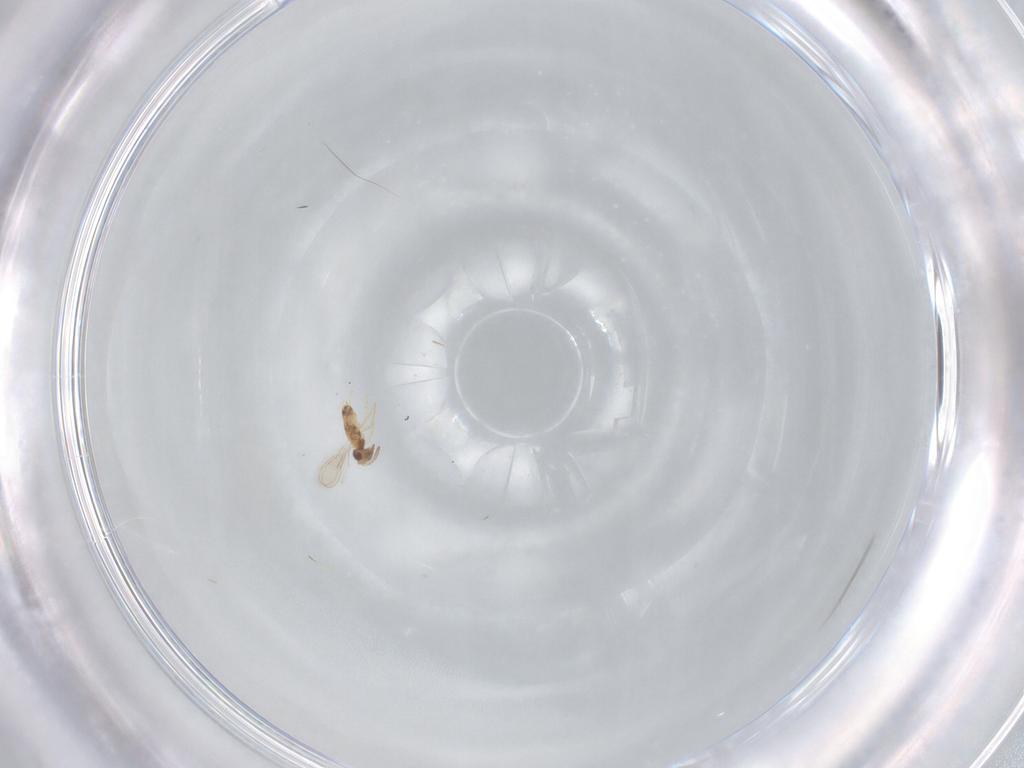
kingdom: Animalia
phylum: Arthropoda
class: Insecta
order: Hymenoptera
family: Aphelinidae
